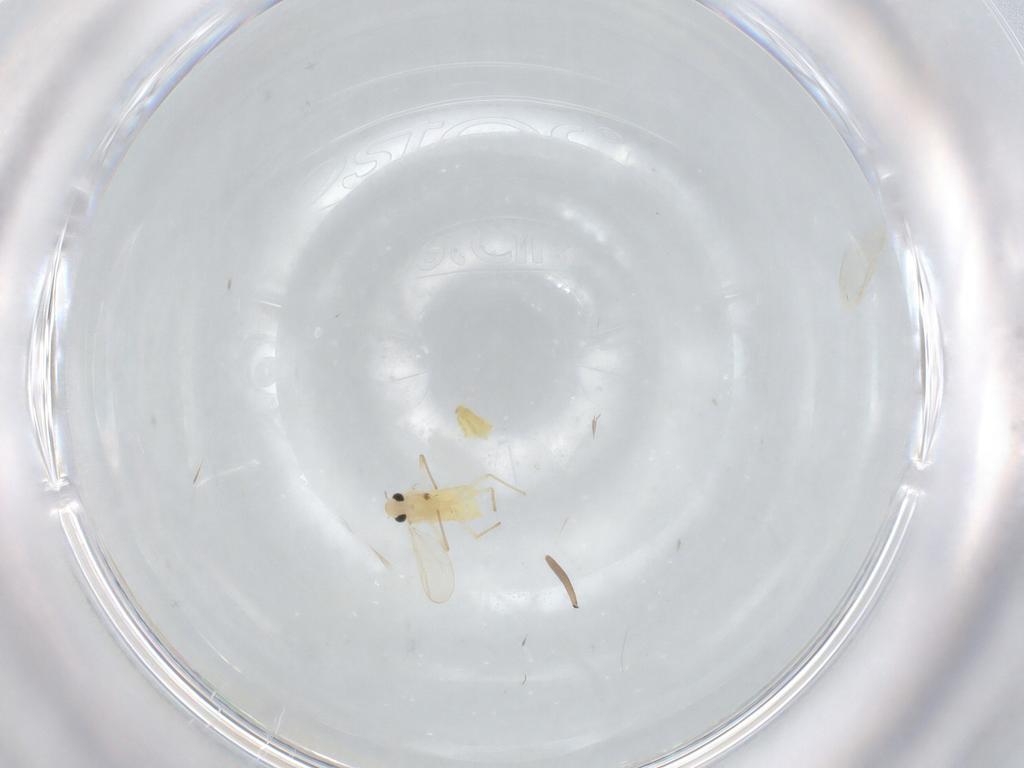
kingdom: Animalia
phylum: Arthropoda
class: Insecta
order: Diptera
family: Chironomidae
